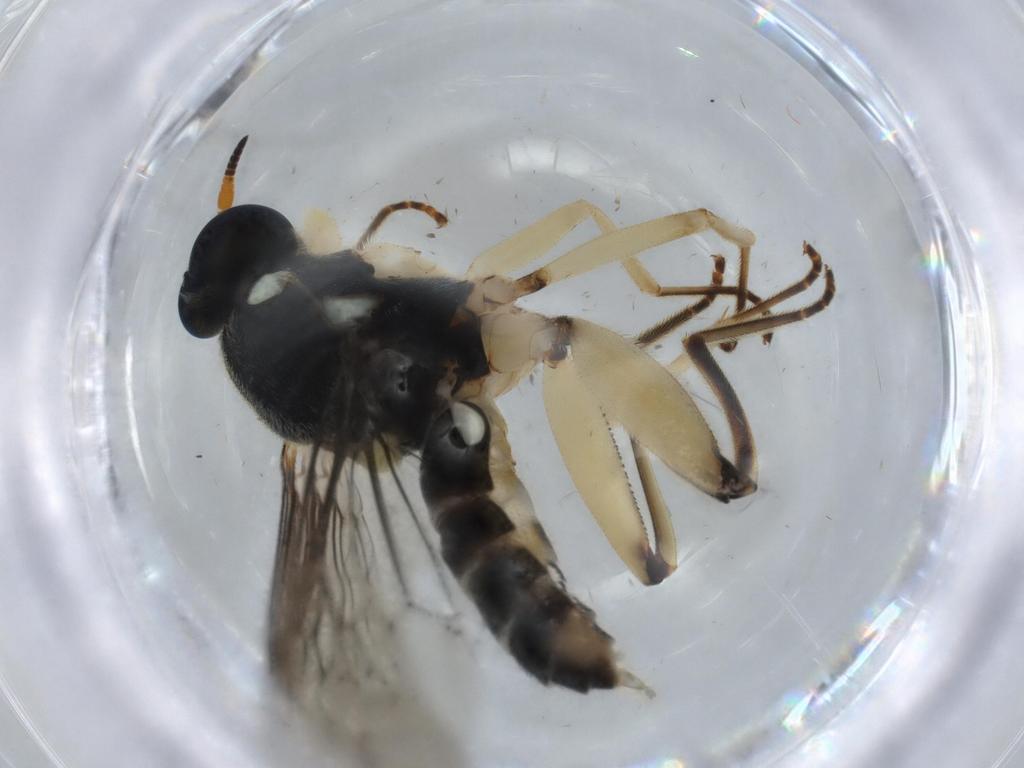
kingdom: Animalia
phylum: Arthropoda
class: Insecta
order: Diptera
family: Xylomyidae
